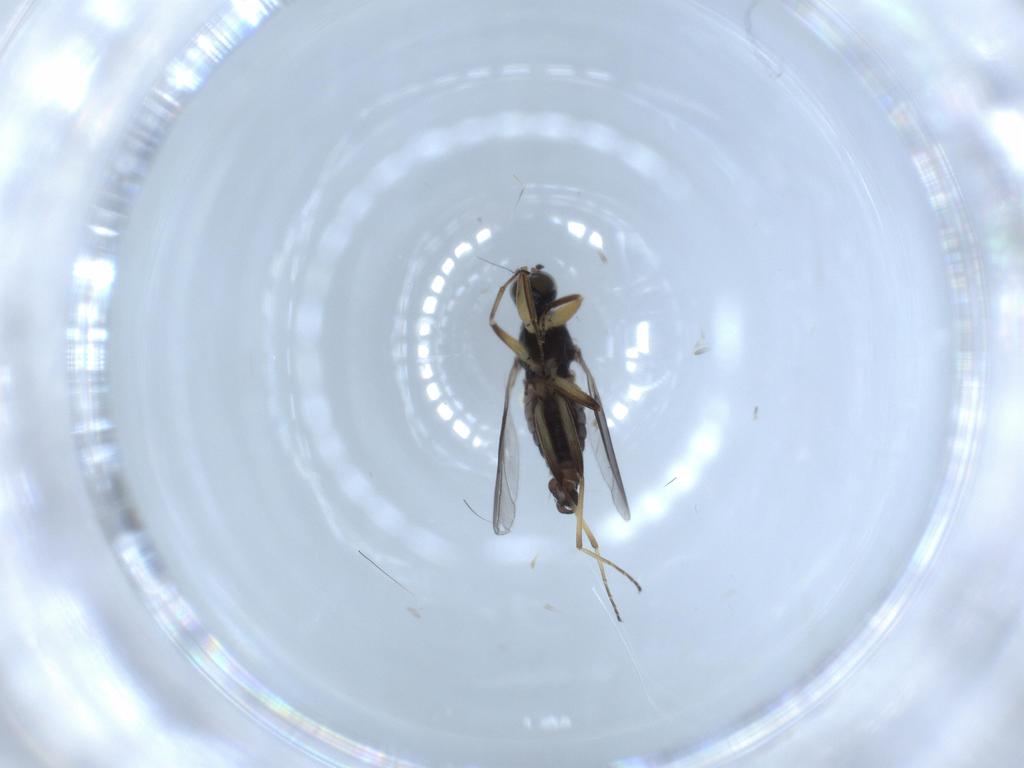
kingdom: Animalia
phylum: Arthropoda
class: Insecta
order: Diptera
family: Hybotidae
